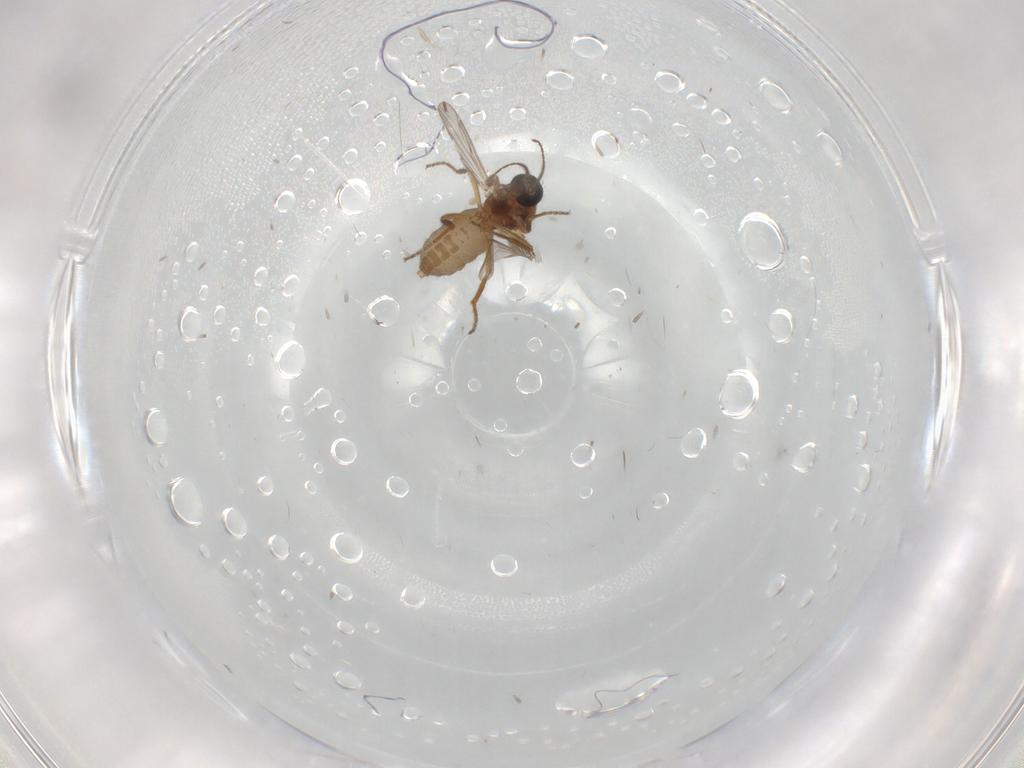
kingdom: Animalia
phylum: Arthropoda
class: Insecta
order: Diptera
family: Ceratopogonidae
